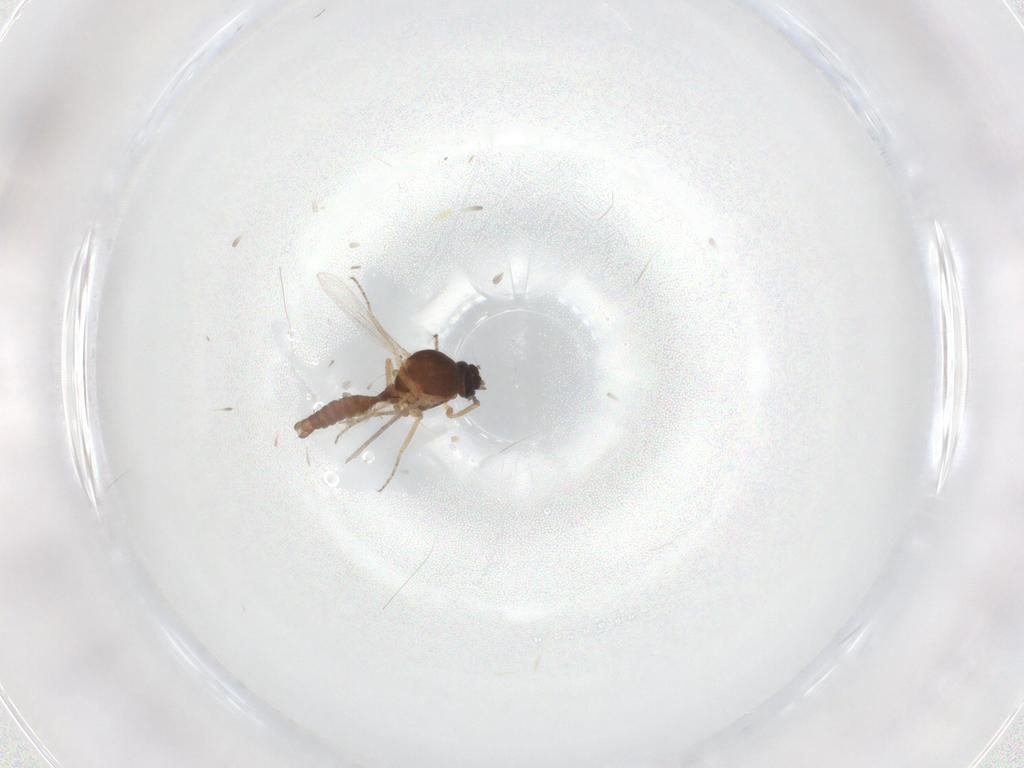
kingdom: Animalia
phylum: Arthropoda
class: Insecta
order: Diptera
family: Ceratopogonidae
